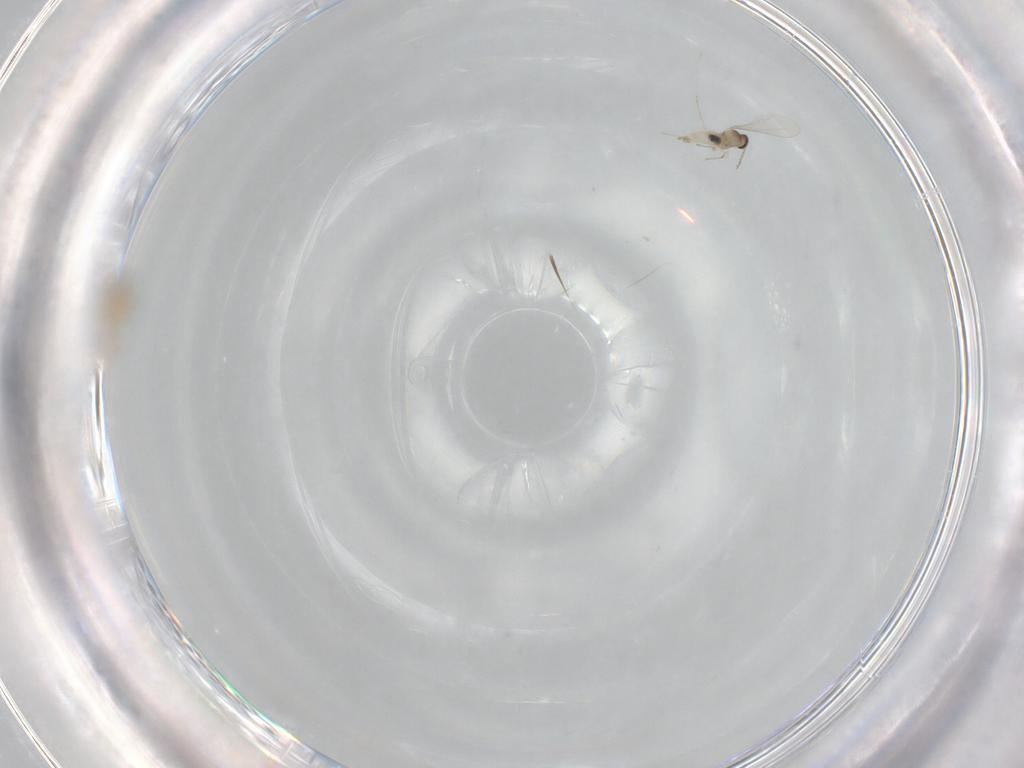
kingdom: Animalia
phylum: Arthropoda
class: Insecta
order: Diptera
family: Cecidomyiidae
